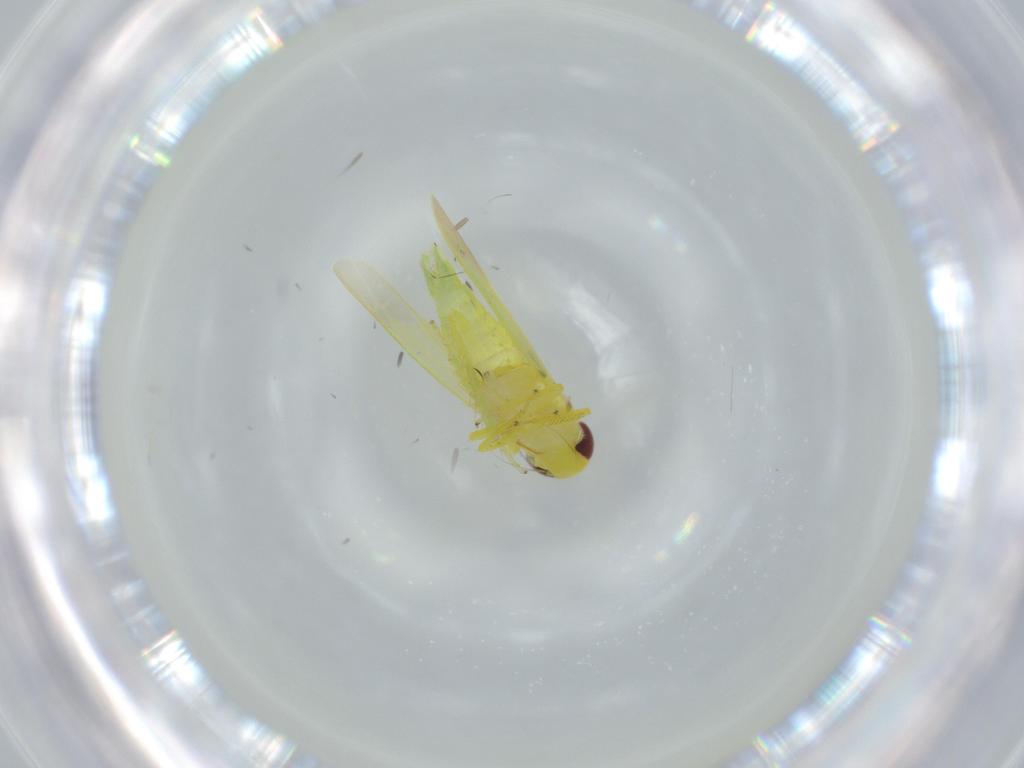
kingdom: Animalia
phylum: Arthropoda
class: Insecta
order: Hemiptera
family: Cicadellidae
